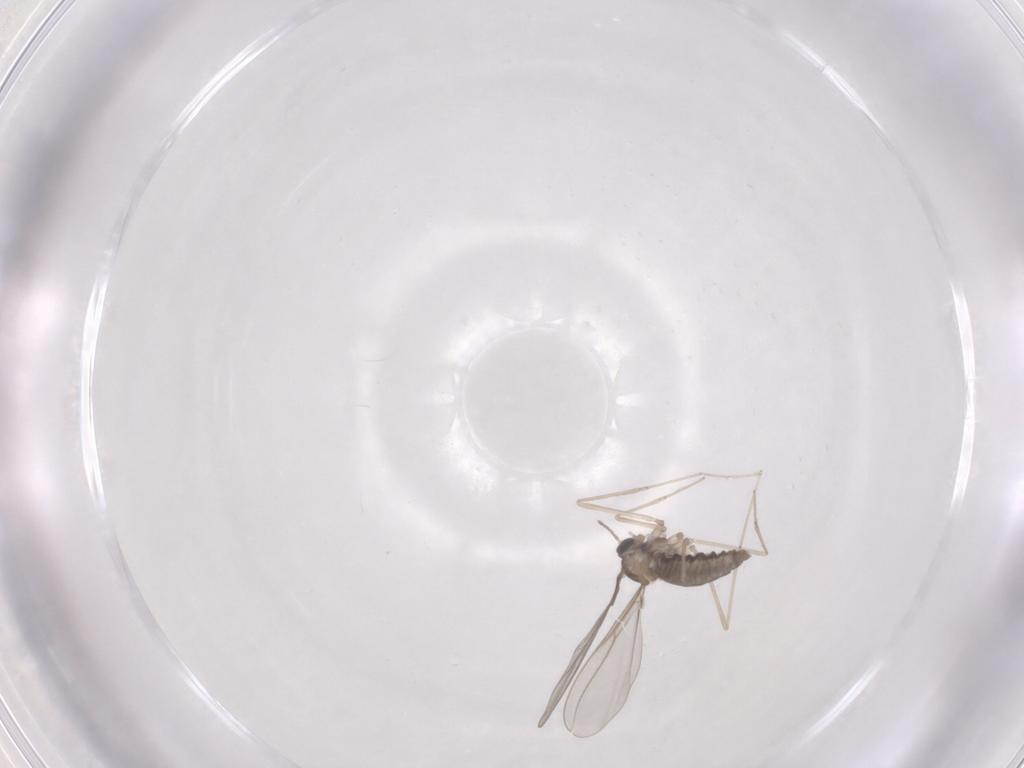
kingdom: Animalia
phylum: Arthropoda
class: Insecta
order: Diptera
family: Cecidomyiidae
